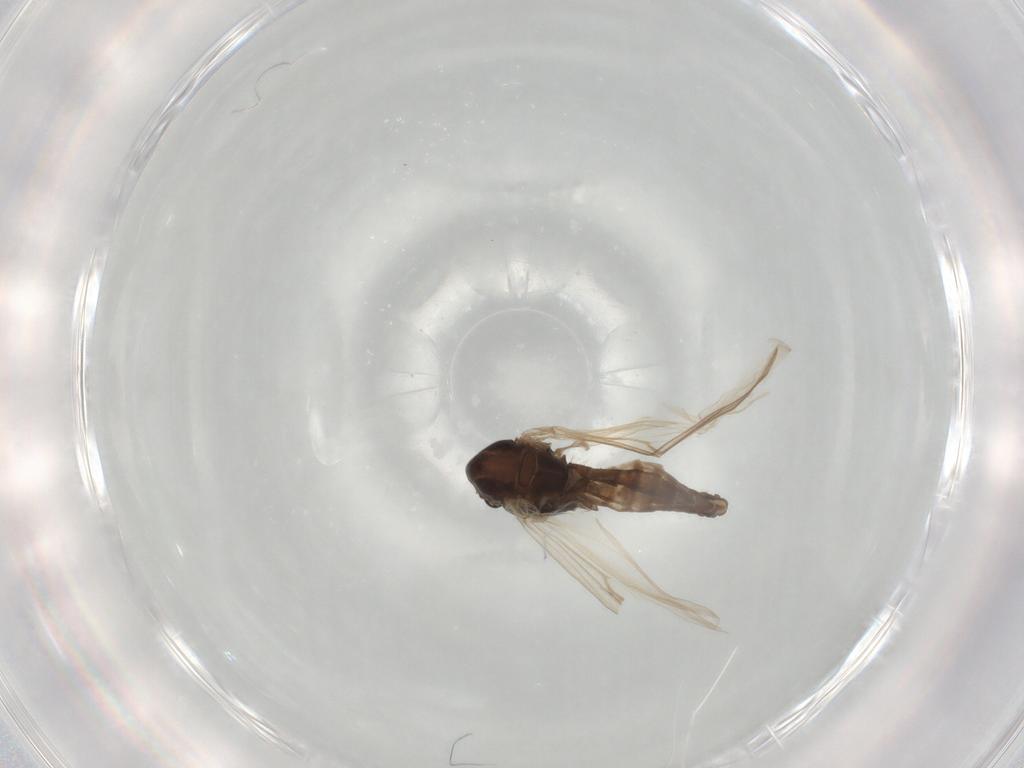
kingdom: Animalia
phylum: Arthropoda
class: Insecta
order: Diptera
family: Chironomidae
